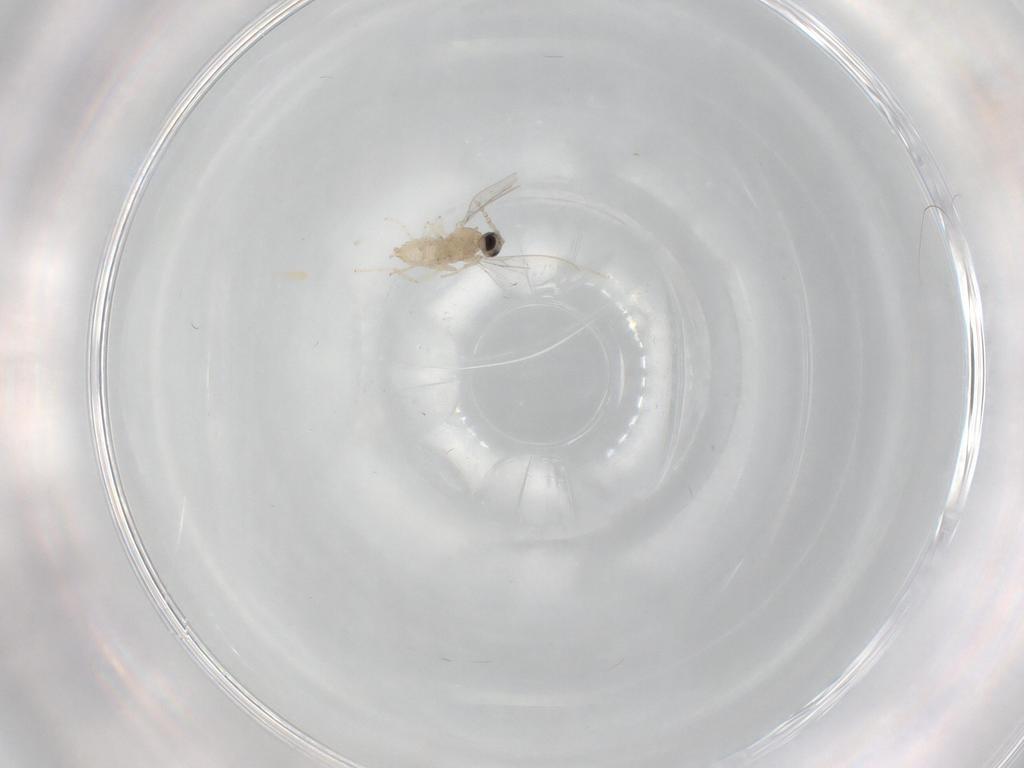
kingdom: Animalia
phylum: Arthropoda
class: Insecta
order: Diptera
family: Cecidomyiidae
